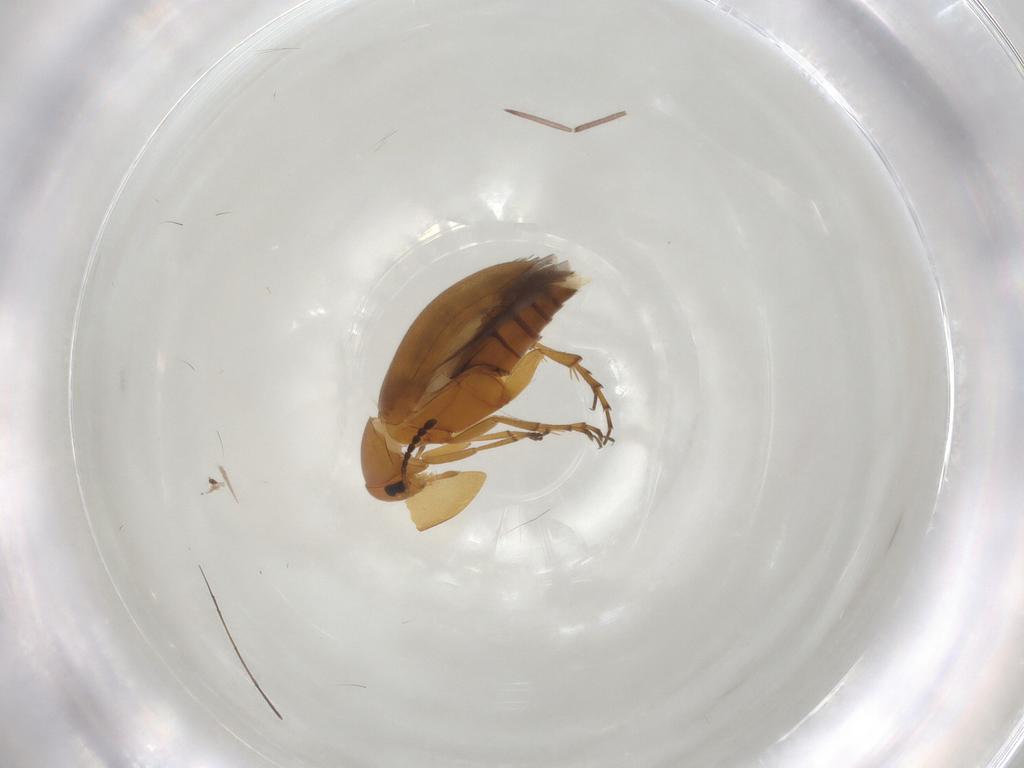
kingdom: Animalia
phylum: Arthropoda
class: Insecta
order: Coleoptera
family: Scraptiidae
